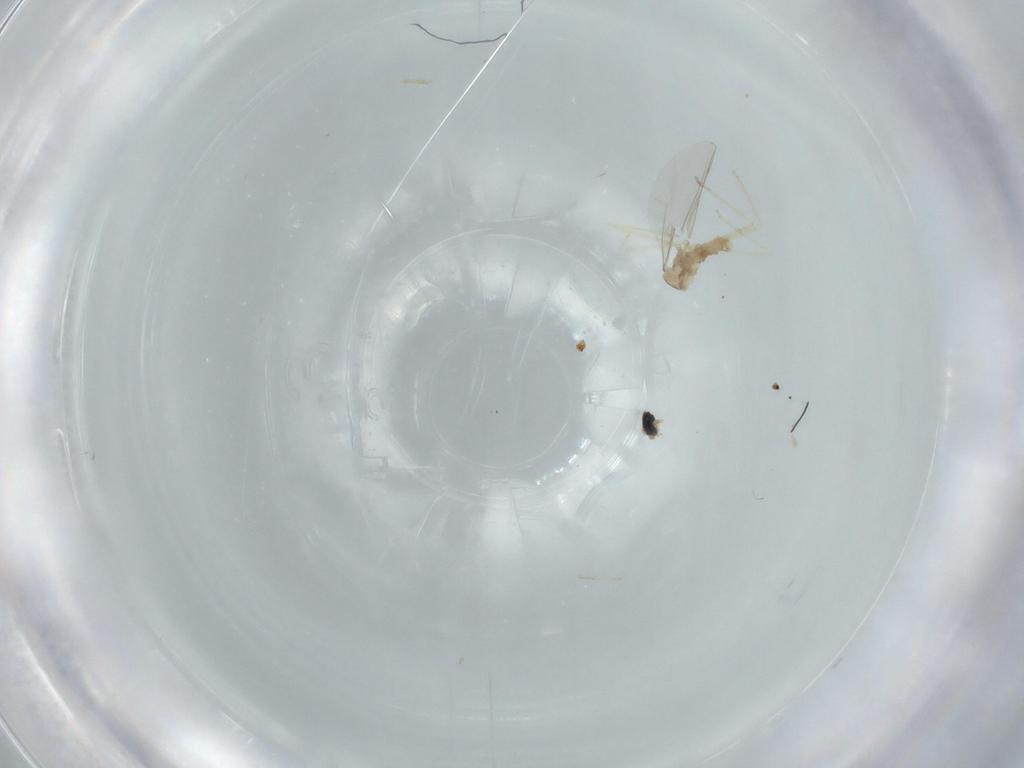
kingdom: Animalia
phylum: Arthropoda
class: Insecta
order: Diptera
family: Cecidomyiidae
